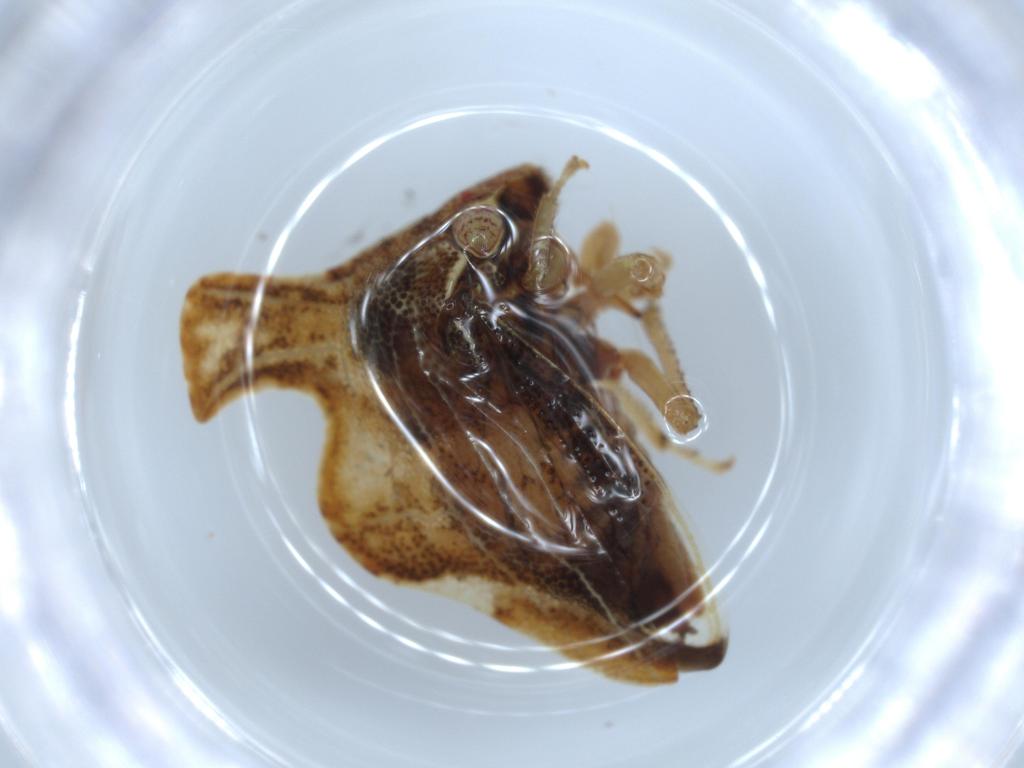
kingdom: Animalia
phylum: Arthropoda
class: Insecta
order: Hemiptera
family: Membracidae
